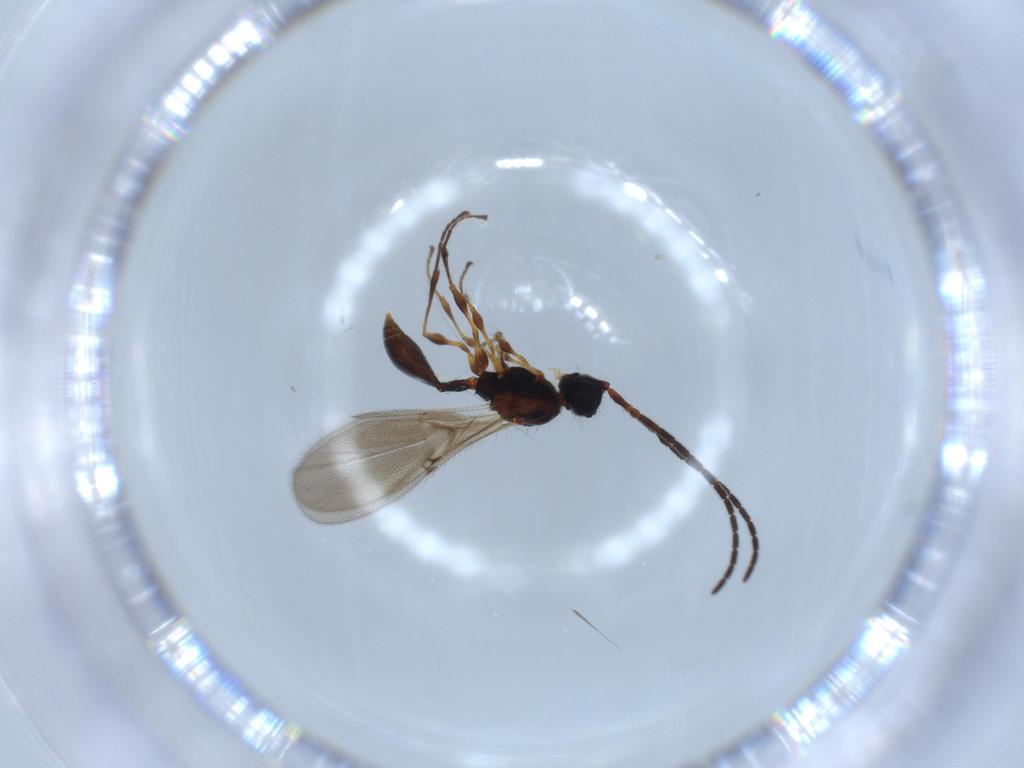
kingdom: Animalia
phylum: Arthropoda
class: Insecta
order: Hymenoptera
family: Diapriidae
